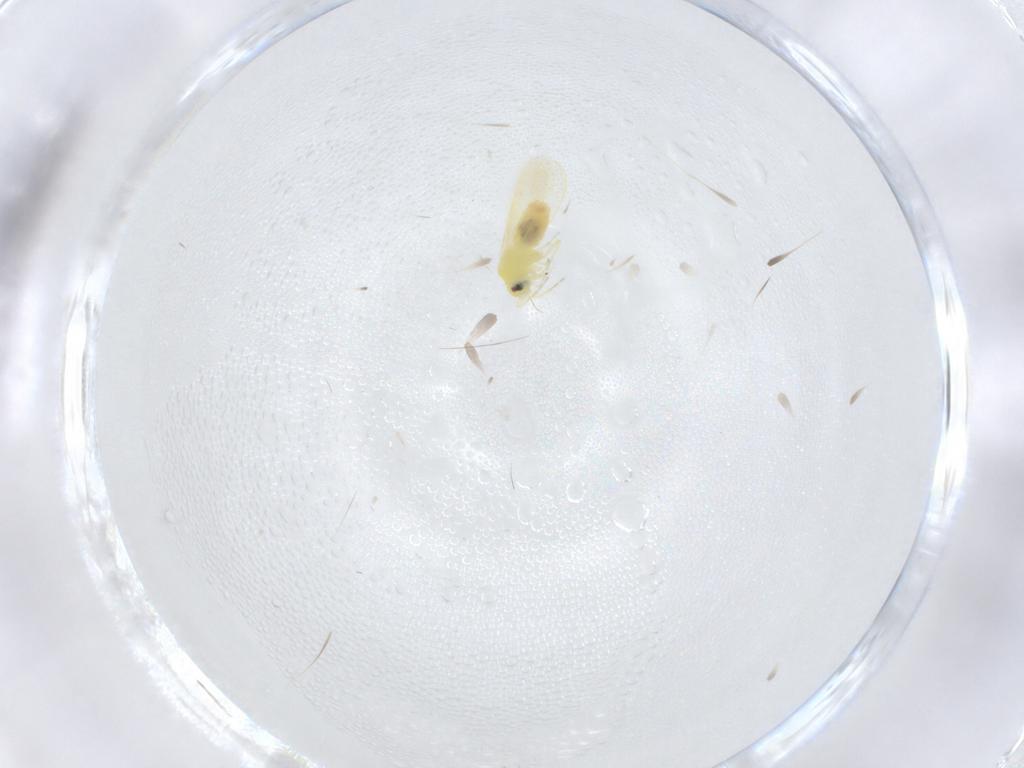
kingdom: Animalia
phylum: Arthropoda
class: Insecta
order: Hemiptera
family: Aleyrodidae
